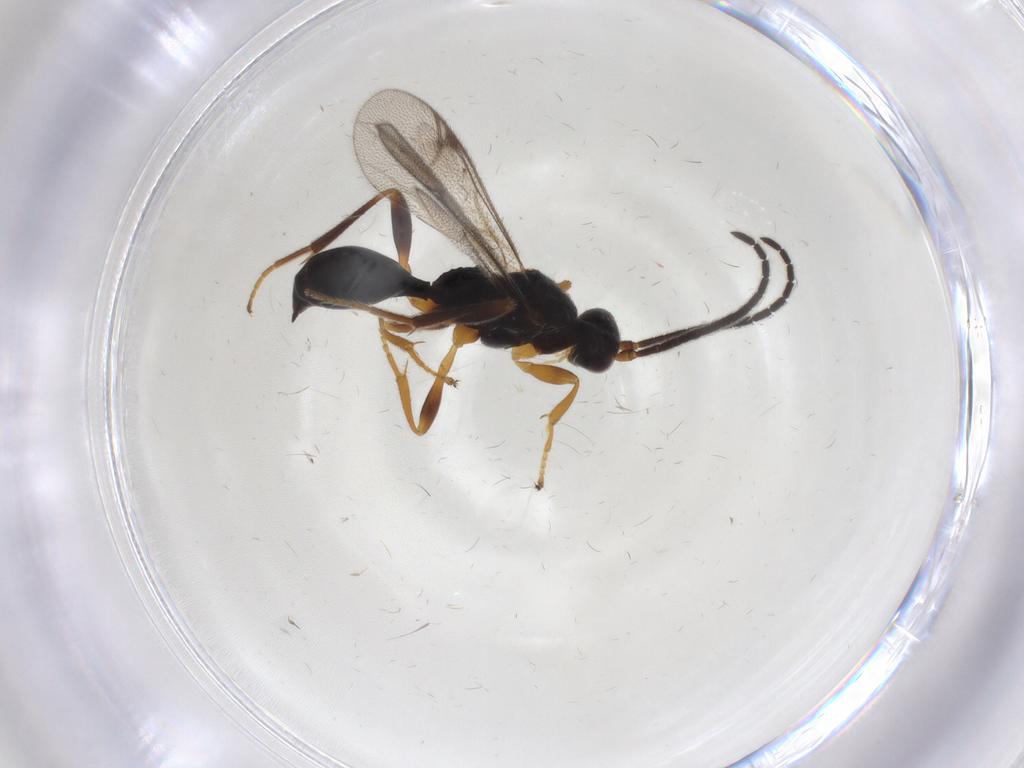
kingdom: Animalia
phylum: Arthropoda
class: Insecta
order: Hymenoptera
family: Proctotrupidae
